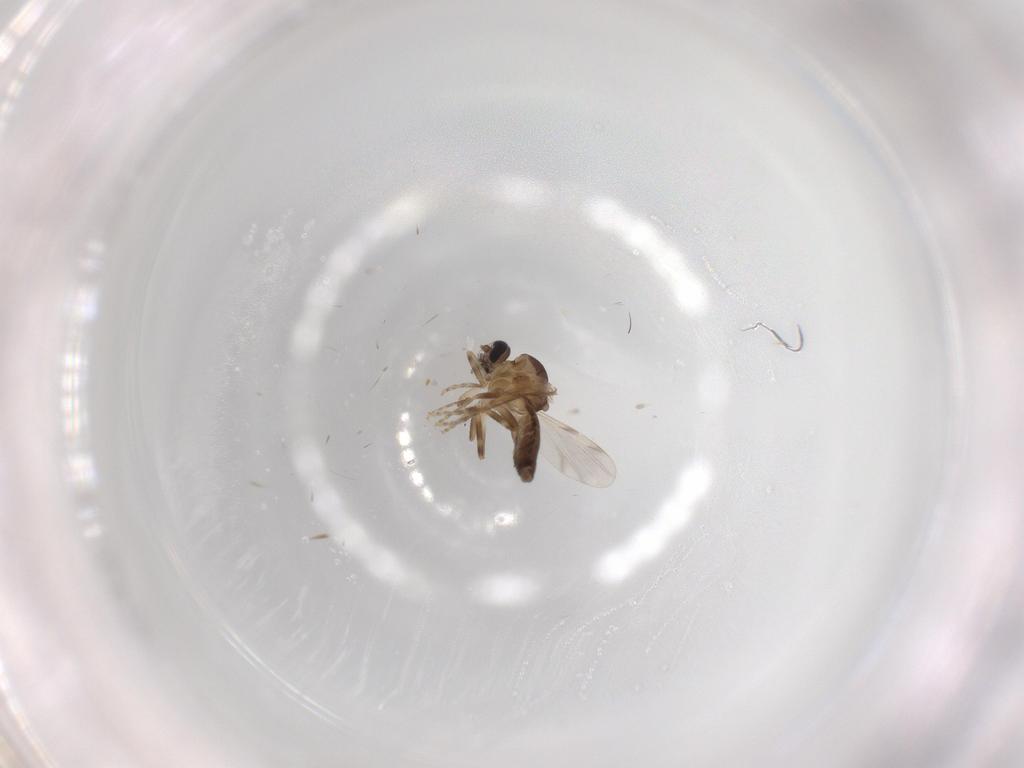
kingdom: Animalia
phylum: Arthropoda
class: Insecta
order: Diptera
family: Ceratopogonidae
